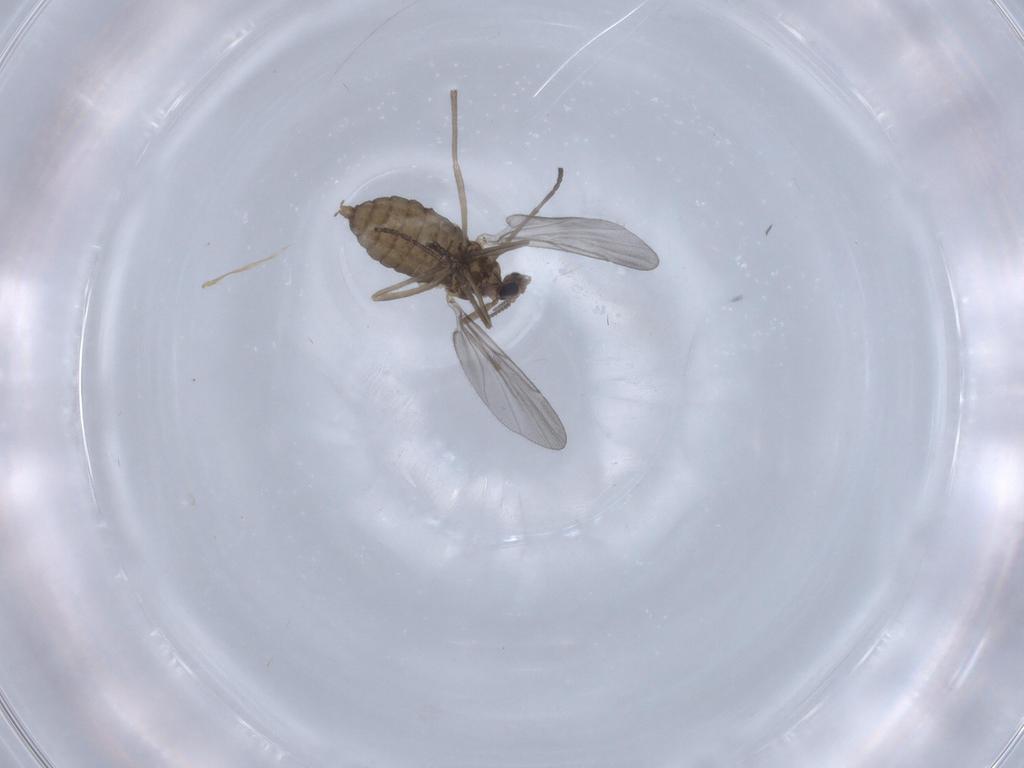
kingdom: Animalia
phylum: Arthropoda
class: Insecta
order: Diptera
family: Cecidomyiidae
